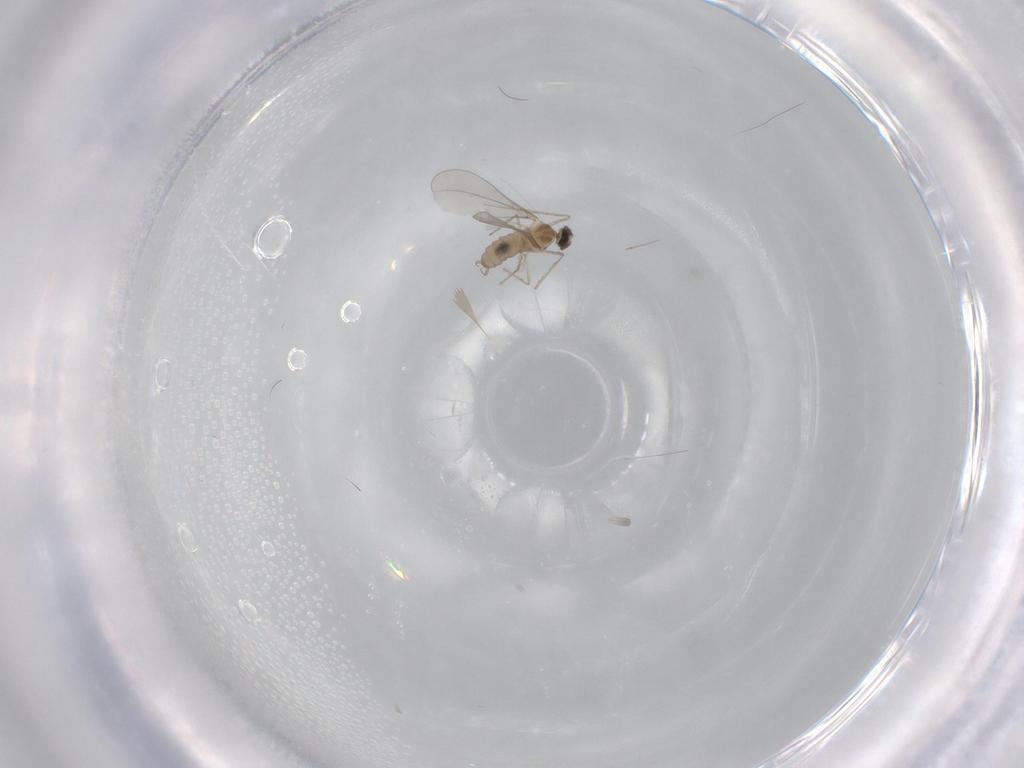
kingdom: Animalia
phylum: Arthropoda
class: Insecta
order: Diptera
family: Cecidomyiidae
